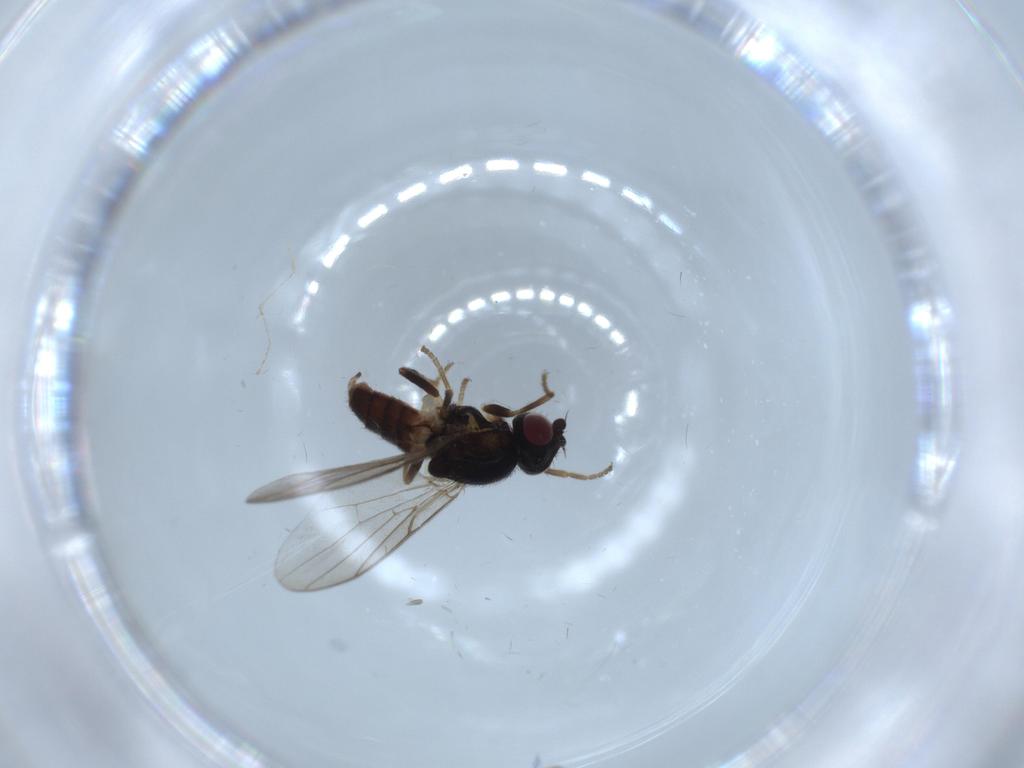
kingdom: Animalia
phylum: Arthropoda
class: Insecta
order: Diptera
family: Chloropidae
